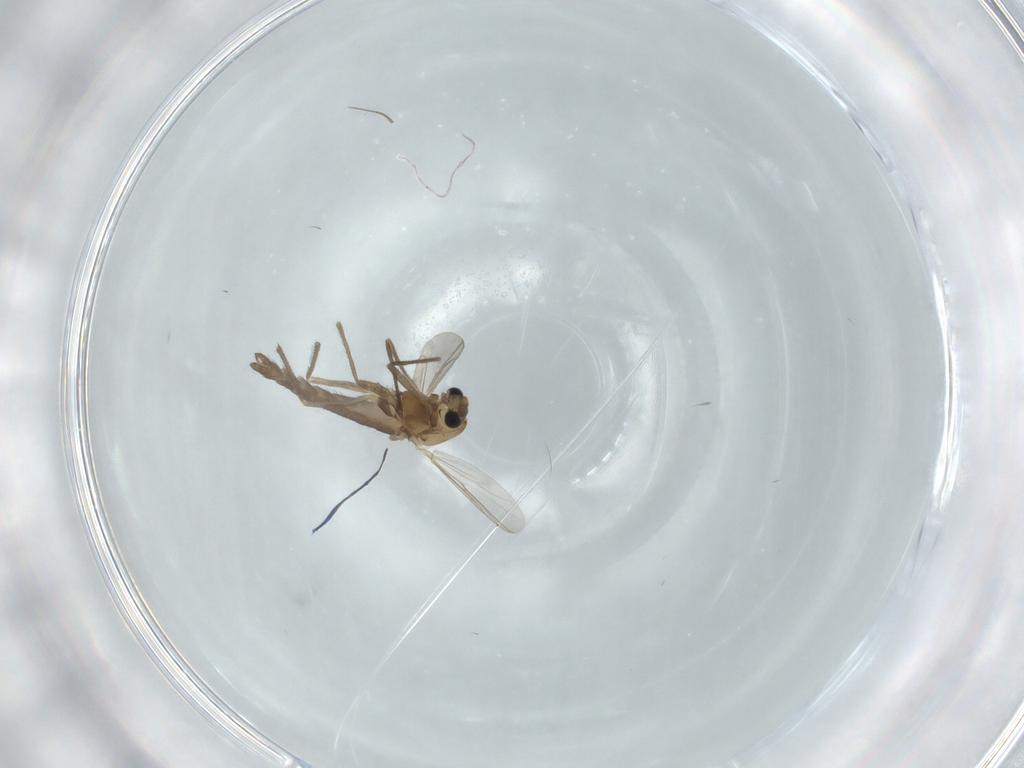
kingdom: Animalia
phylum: Arthropoda
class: Insecta
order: Diptera
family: Chironomidae
